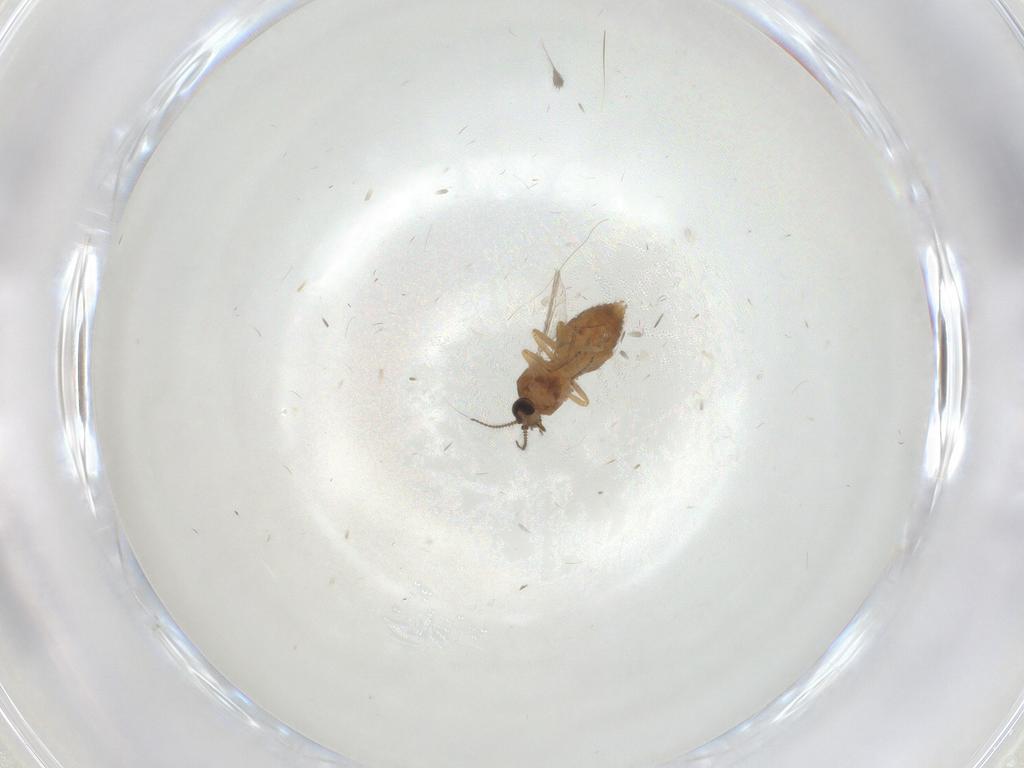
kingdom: Animalia
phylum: Arthropoda
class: Insecta
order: Diptera
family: Ceratopogonidae
